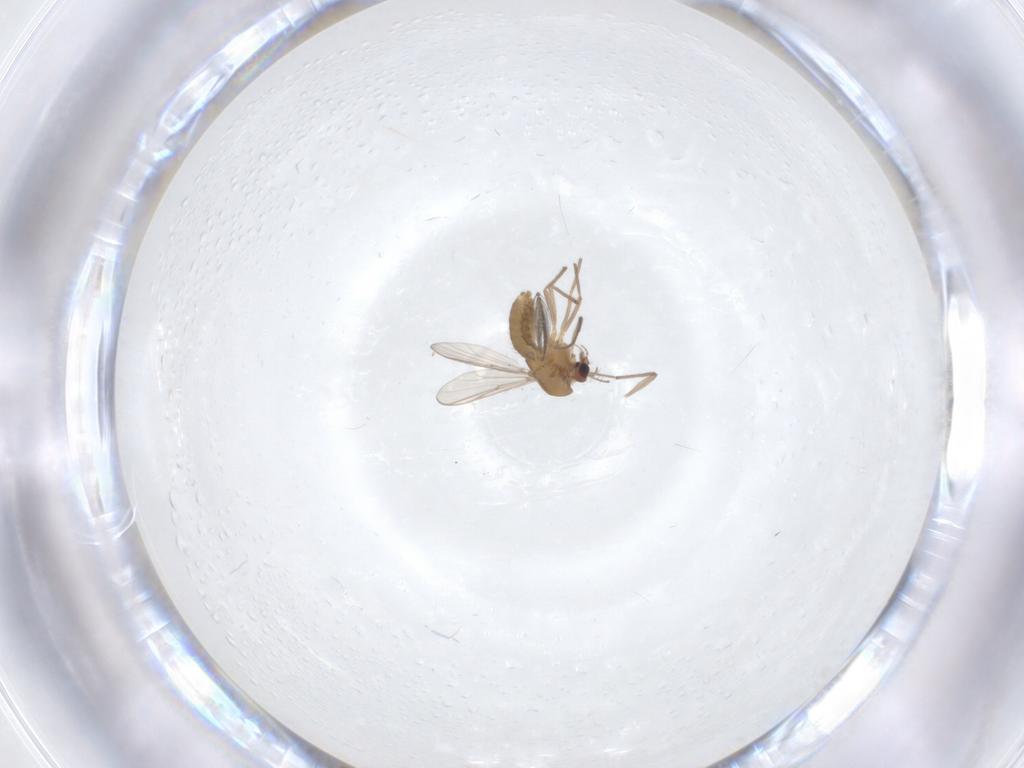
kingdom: Animalia
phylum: Arthropoda
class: Insecta
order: Diptera
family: Chironomidae
